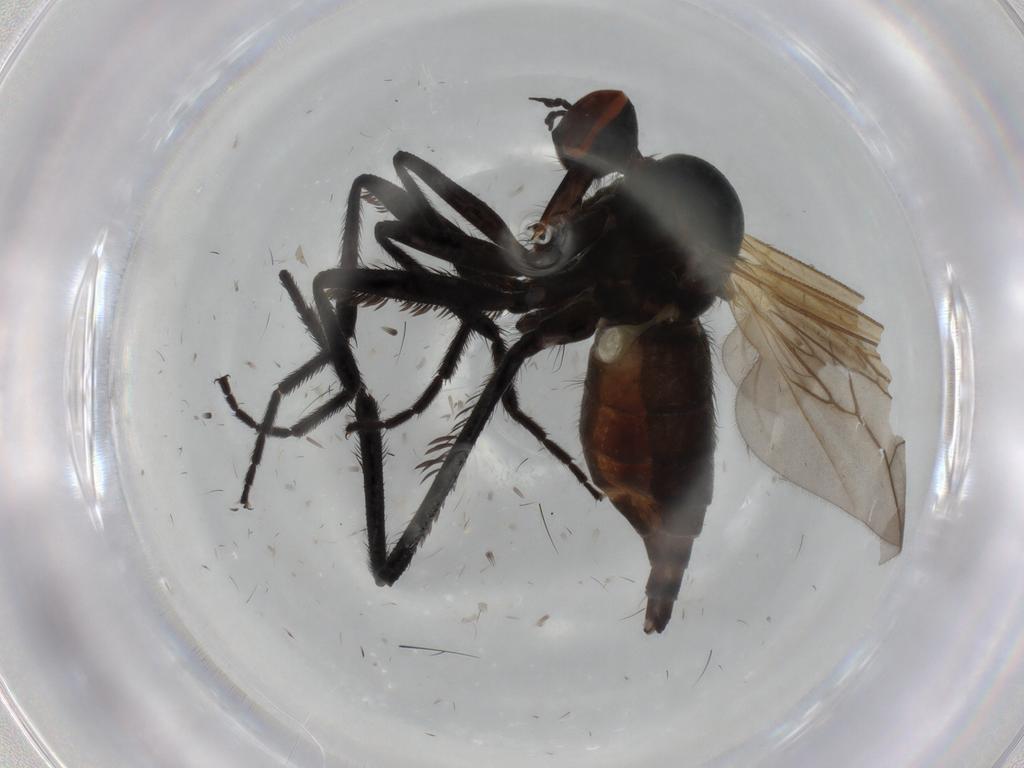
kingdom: Animalia
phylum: Arthropoda
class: Insecta
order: Diptera
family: Empididae
